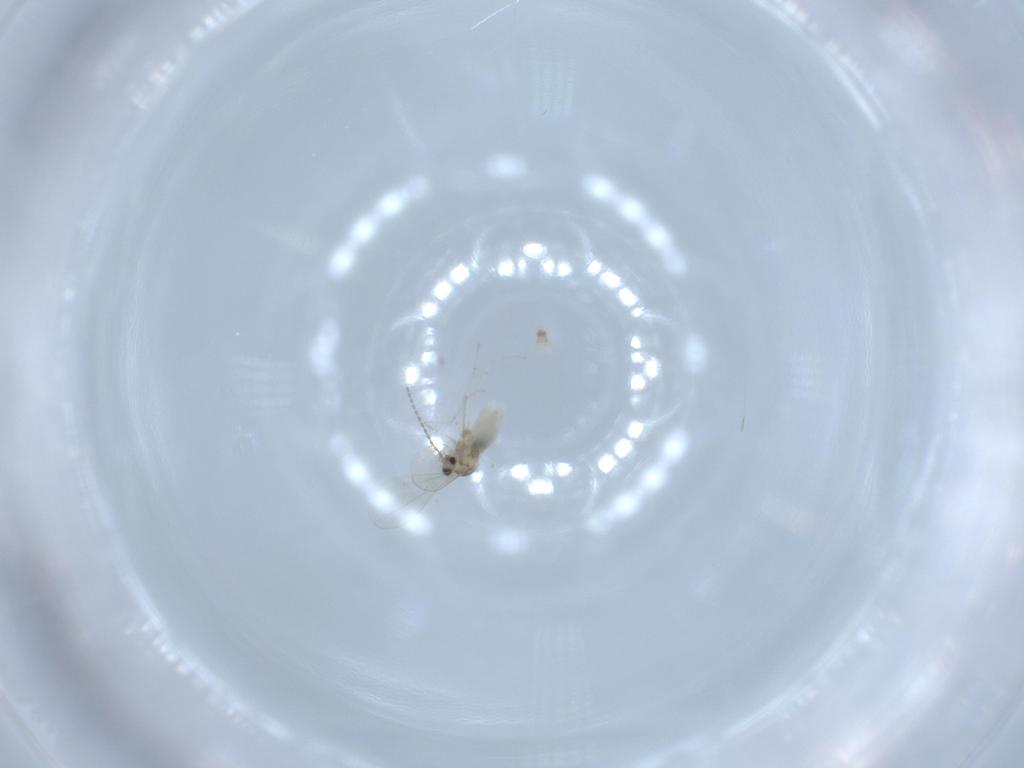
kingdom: Animalia
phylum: Arthropoda
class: Insecta
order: Diptera
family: Cecidomyiidae
